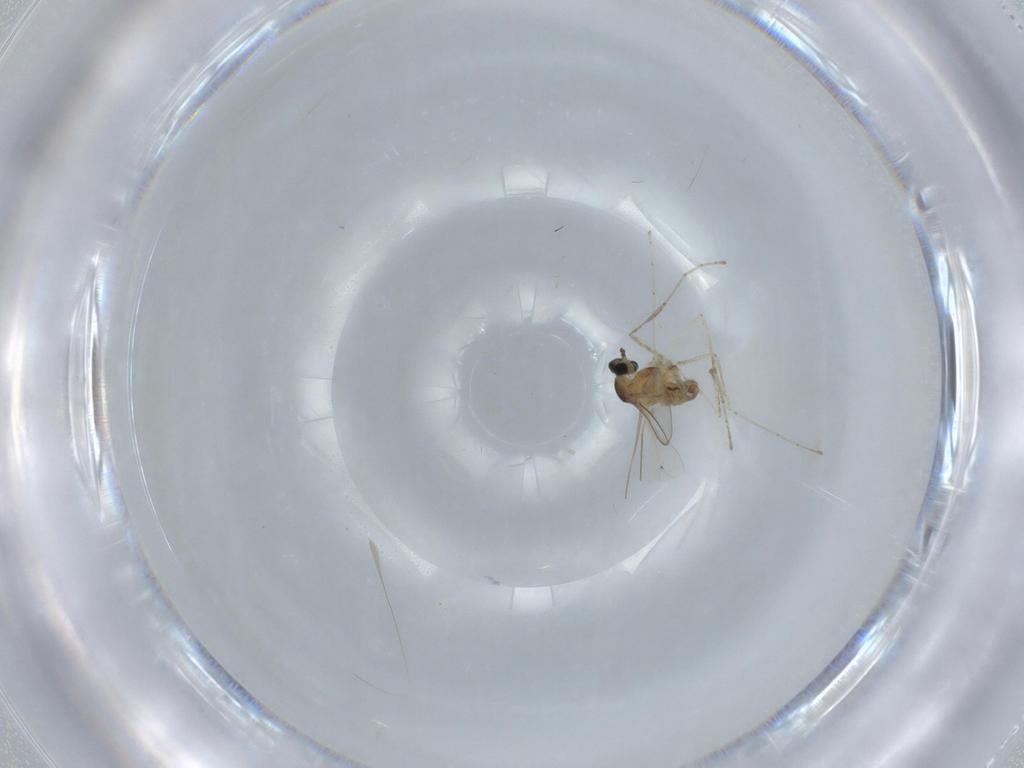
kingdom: Animalia
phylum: Arthropoda
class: Insecta
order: Diptera
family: Cecidomyiidae
